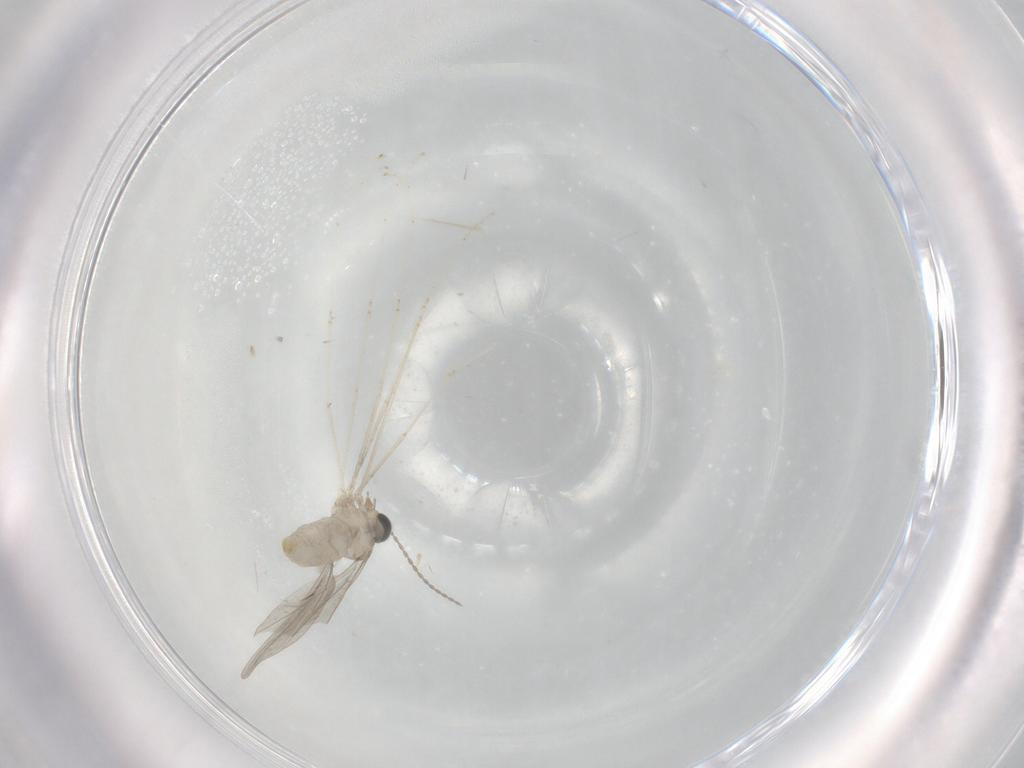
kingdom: Animalia
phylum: Arthropoda
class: Insecta
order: Diptera
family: Cecidomyiidae
